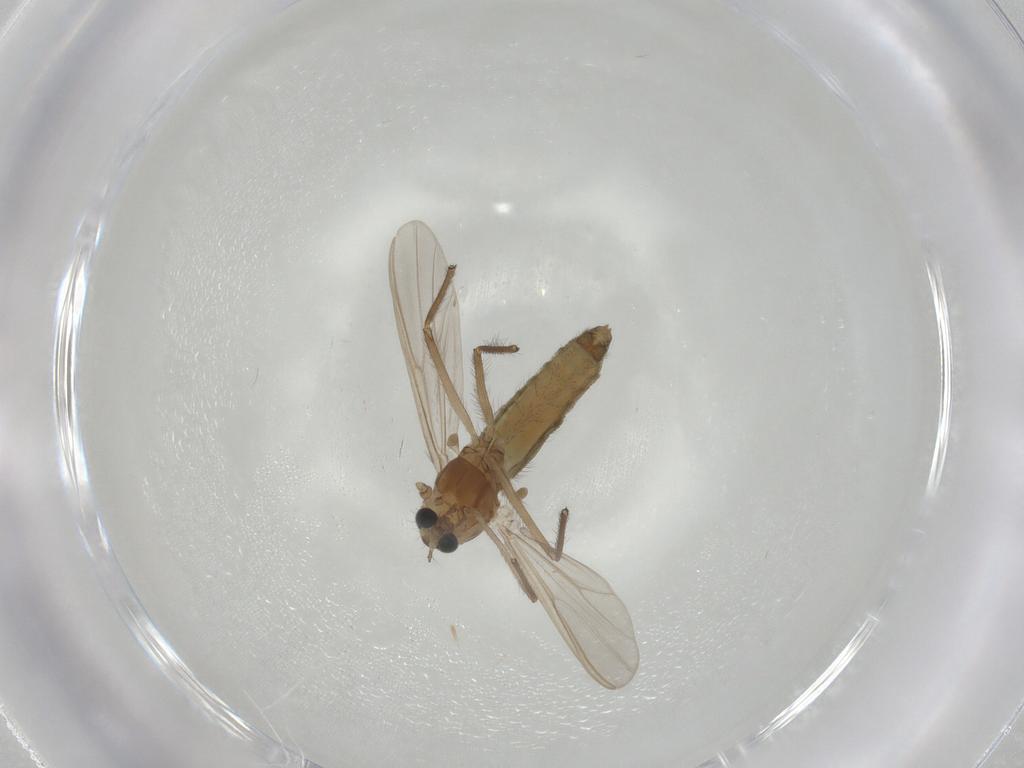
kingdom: Animalia
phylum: Arthropoda
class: Insecta
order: Diptera
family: Chironomidae
